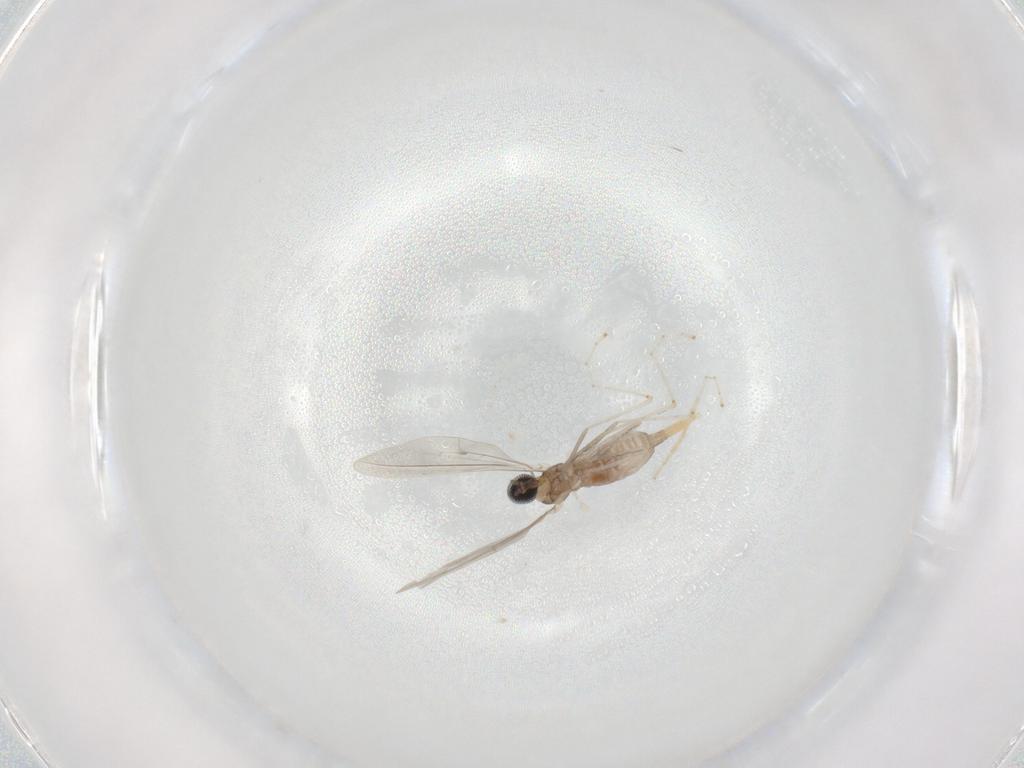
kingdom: Animalia
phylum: Arthropoda
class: Insecta
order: Diptera
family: Cecidomyiidae
